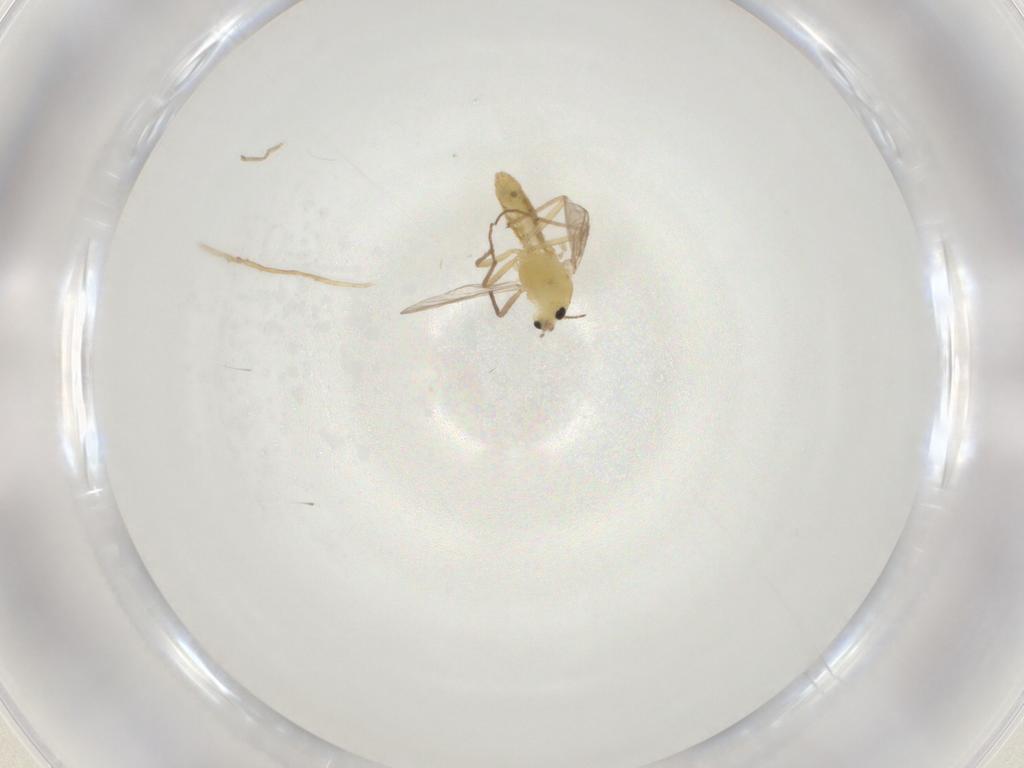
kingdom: Animalia
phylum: Arthropoda
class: Insecta
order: Diptera
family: Chironomidae
